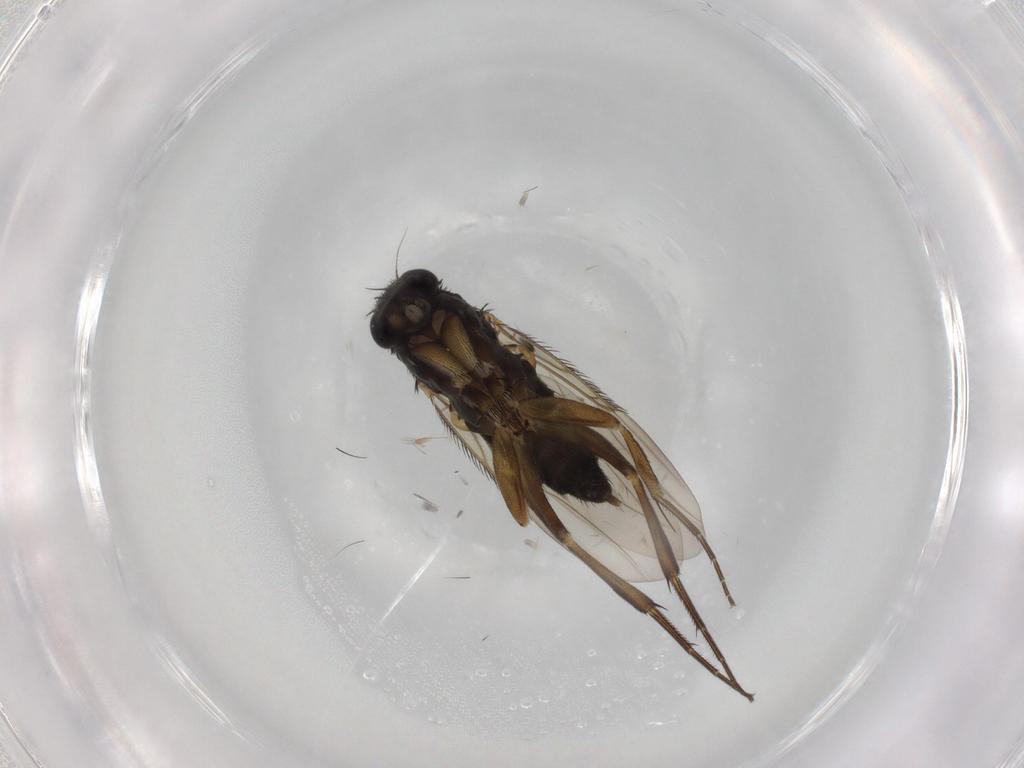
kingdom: Animalia
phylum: Arthropoda
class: Insecta
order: Diptera
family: Phoridae
